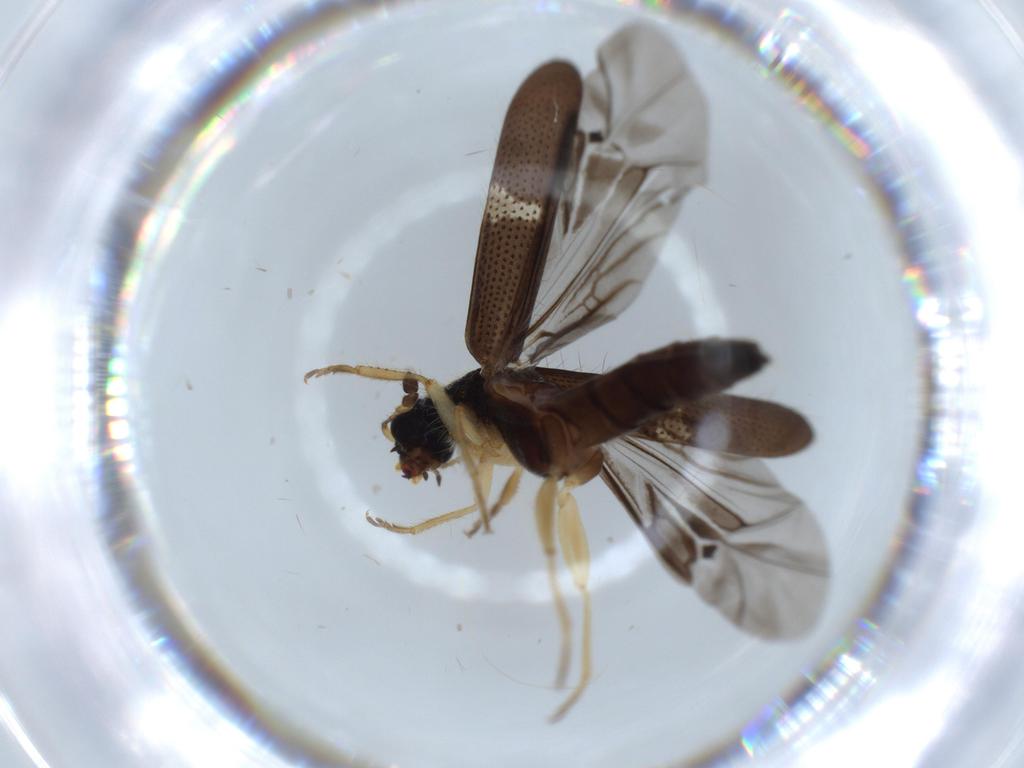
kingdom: Animalia
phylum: Arthropoda
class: Insecta
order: Coleoptera
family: Cleridae
